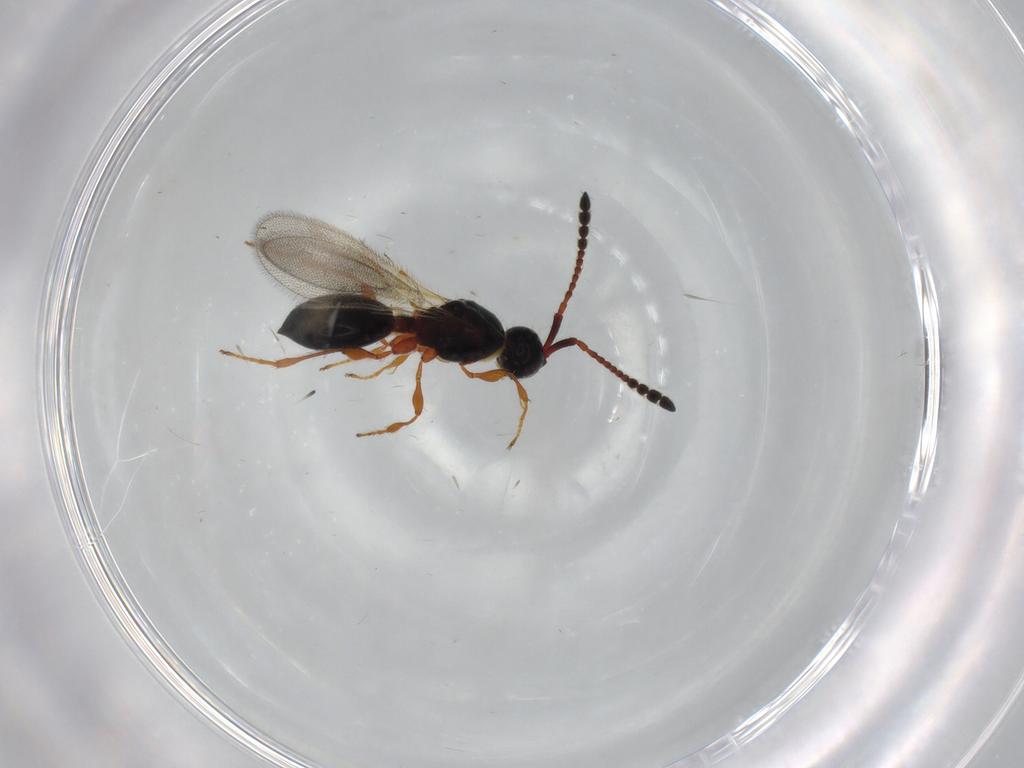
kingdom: Animalia
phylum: Arthropoda
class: Insecta
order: Hymenoptera
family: Diapriidae
